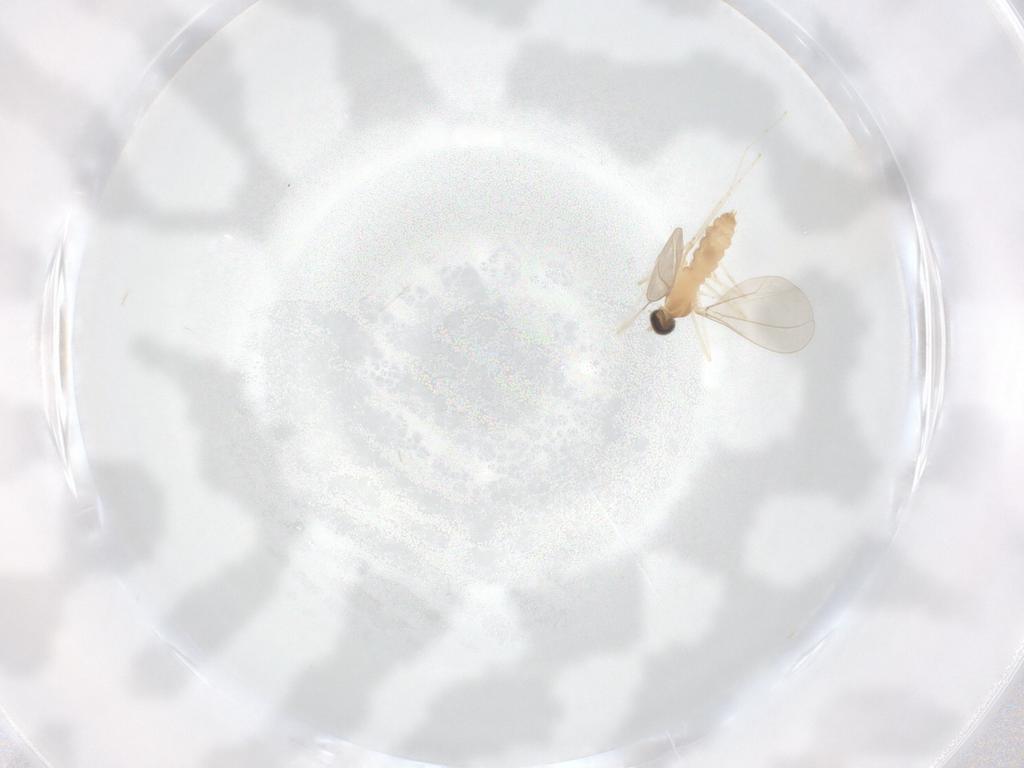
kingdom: Animalia
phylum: Arthropoda
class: Insecta
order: Diptera
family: Cecidomyiidae
